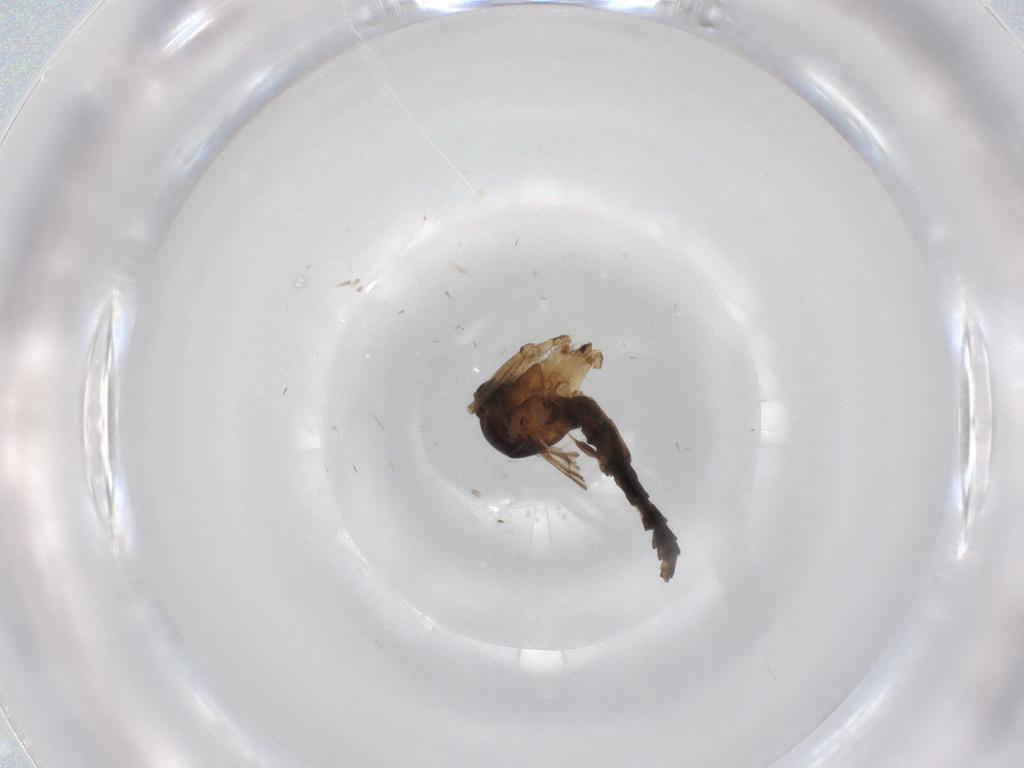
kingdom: Animalia
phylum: Arthropoda
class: Insecta
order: Diptera
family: Sciaridae
